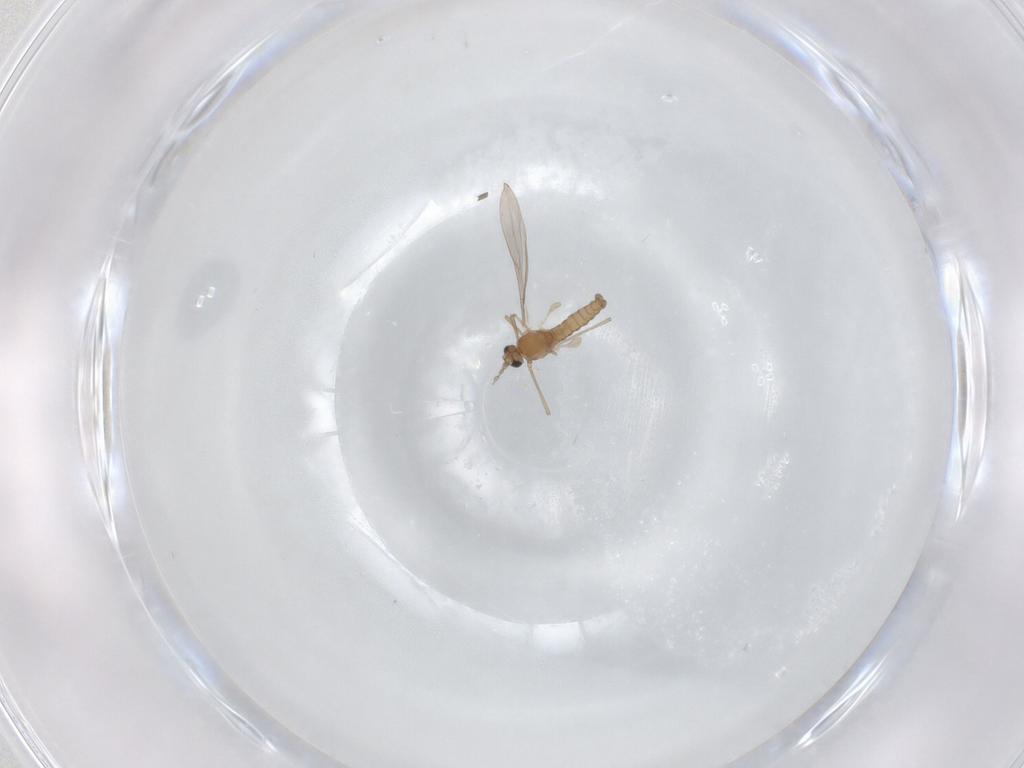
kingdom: Animalia
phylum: Arthropoda
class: Insecta
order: Diptera
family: Cecidomyiidae
